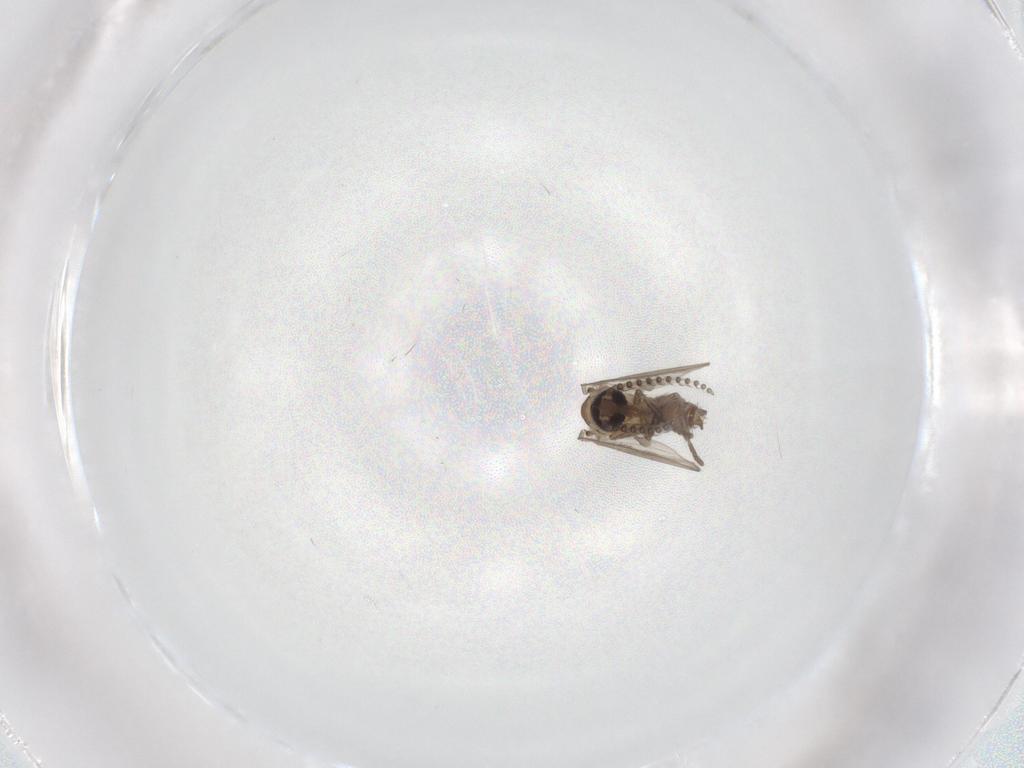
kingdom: Animalia
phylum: Arthropoda
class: Insecta
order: Diptera
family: Psychodidae
